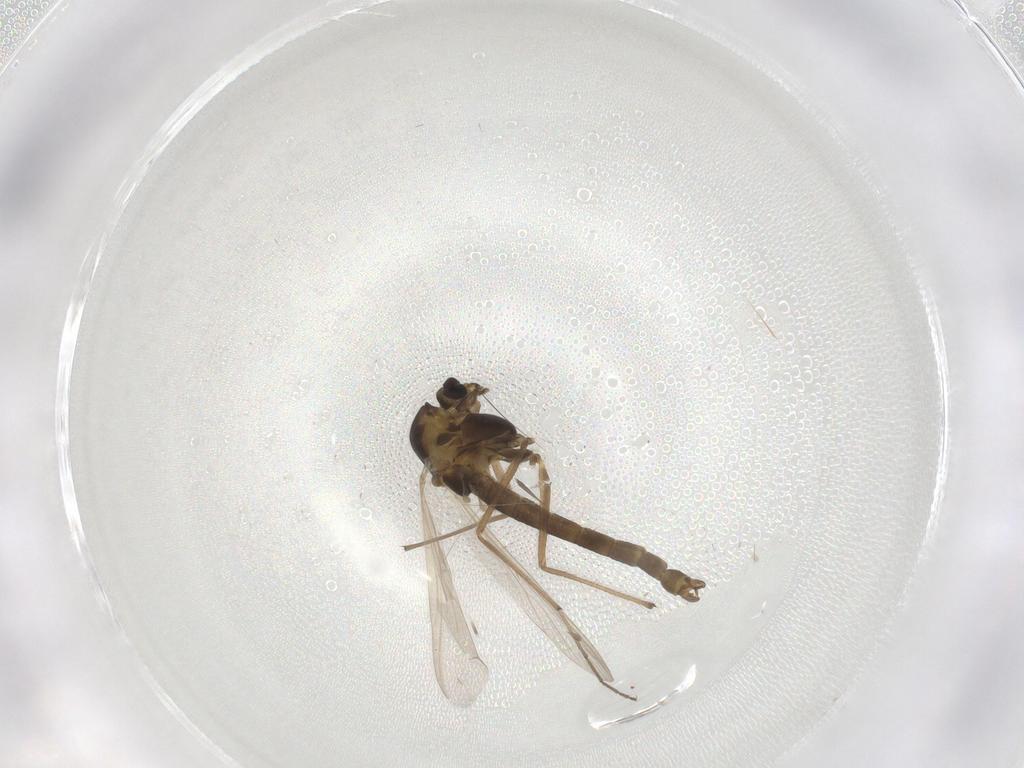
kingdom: Animalia
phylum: Arthropoda
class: Insecta
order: Diptera
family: Chironomidae
